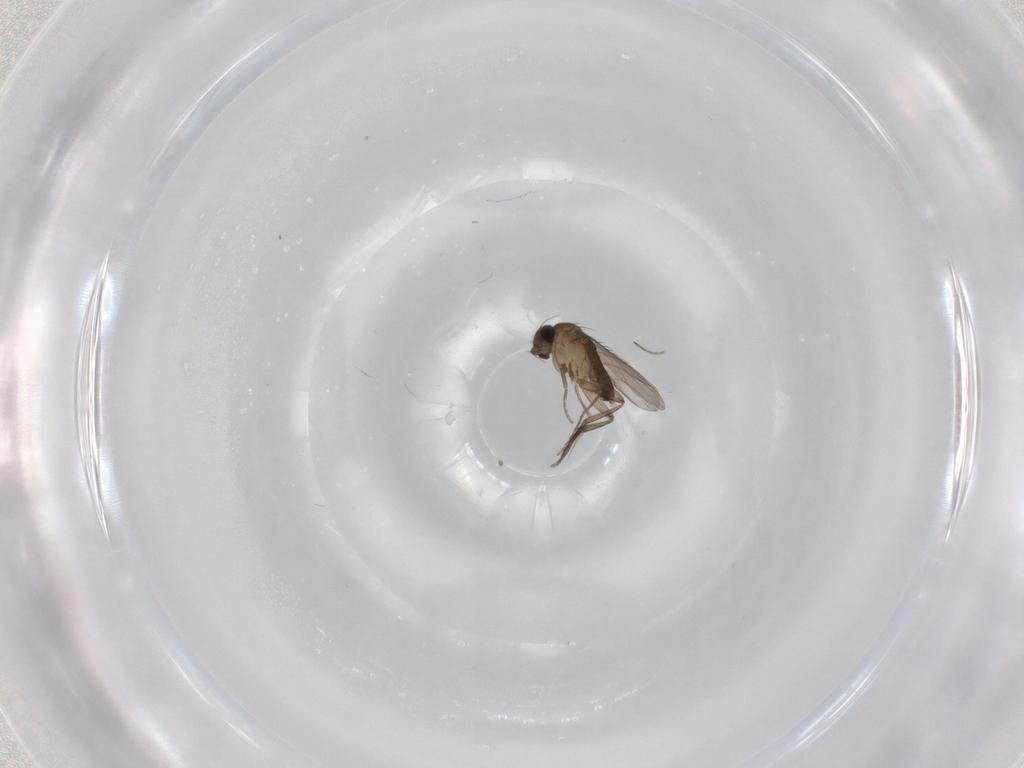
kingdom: Animalia
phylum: Arthropoda
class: Insecta
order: Diptera
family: Phoridae
